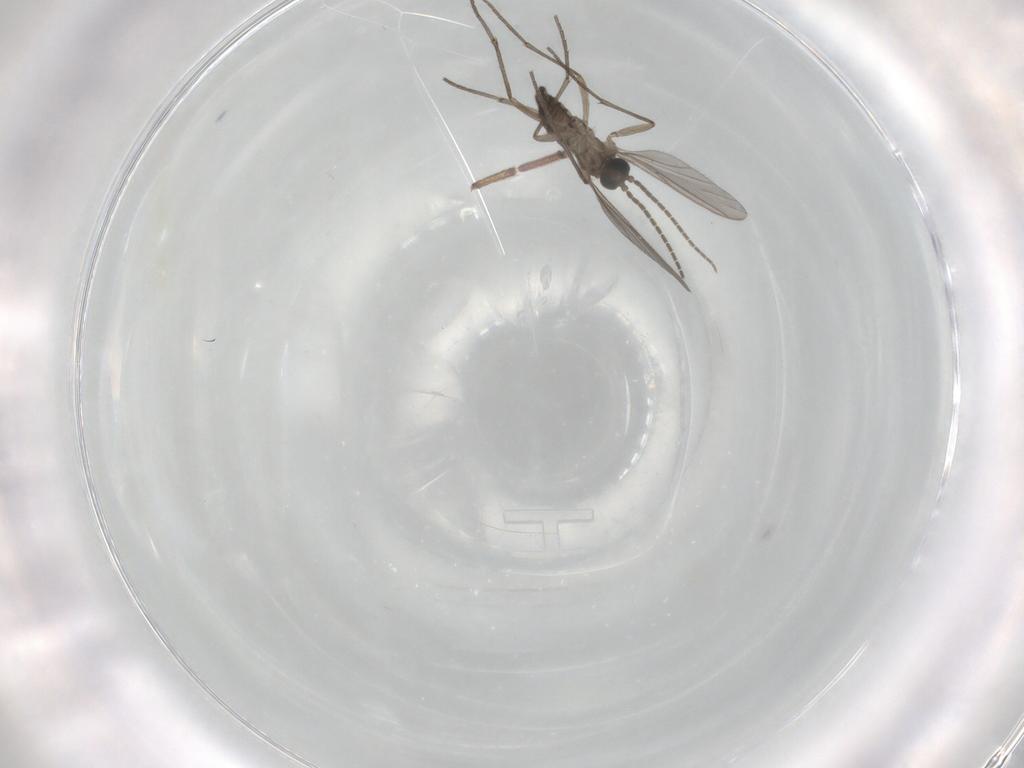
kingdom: Animalia
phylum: Arthropoda
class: Insecta
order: Diptera
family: Sciaridae
